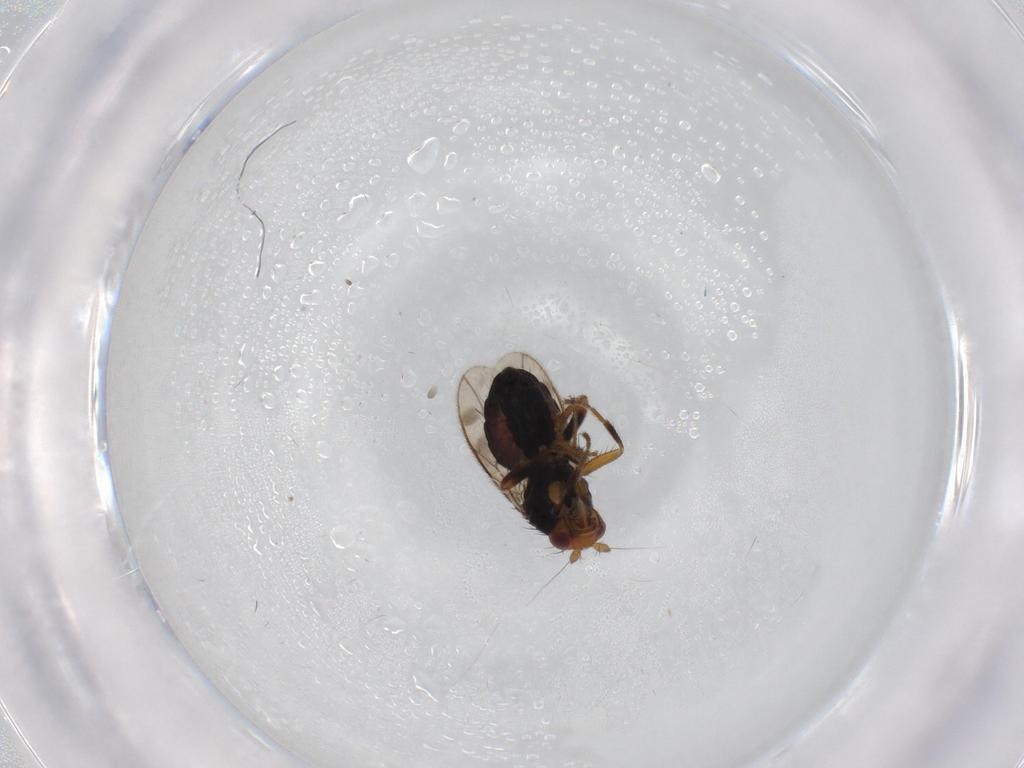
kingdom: Animalia
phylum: Arthropoda
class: Insecta
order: Diptera
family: Sphaeroceridae
